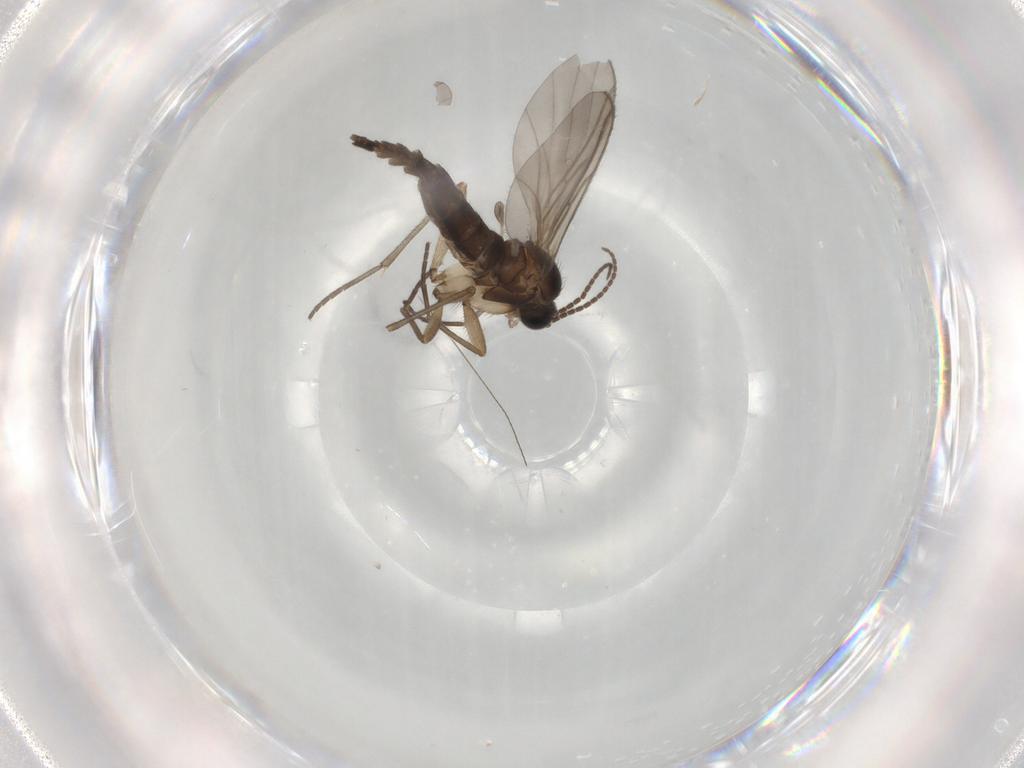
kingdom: Animalia
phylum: Arthropoda
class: Insecta
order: Diptera
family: Sciaridae
